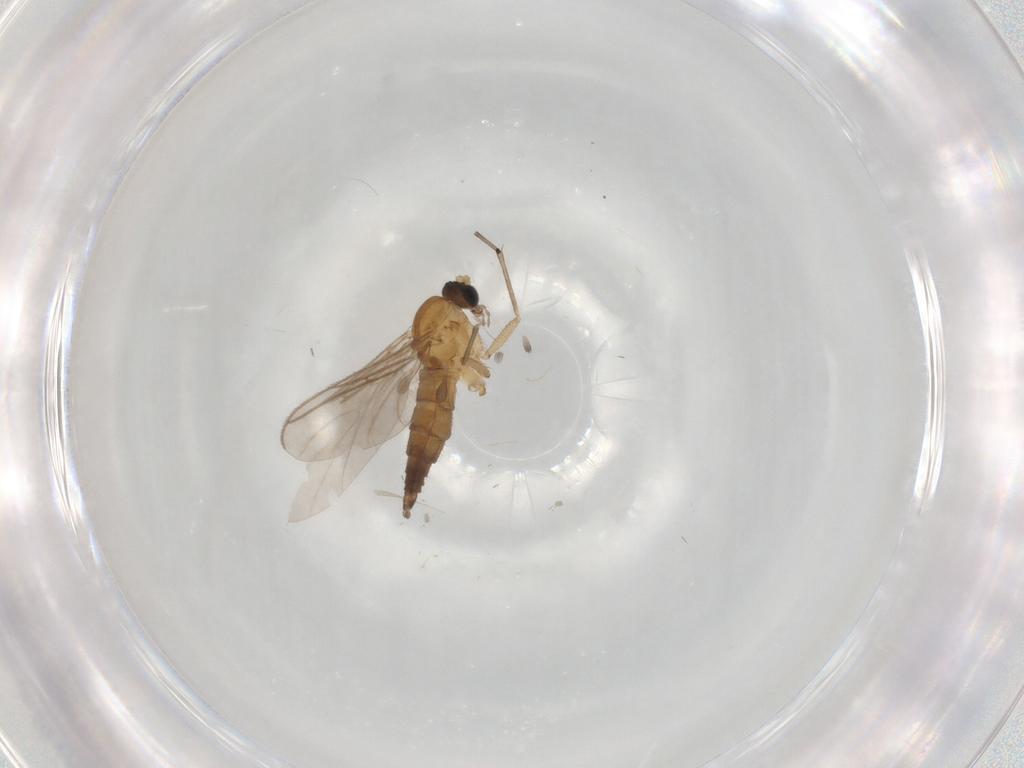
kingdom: Animalia
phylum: Arthropoda
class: Insecta
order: Diptera
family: Sciaridae
